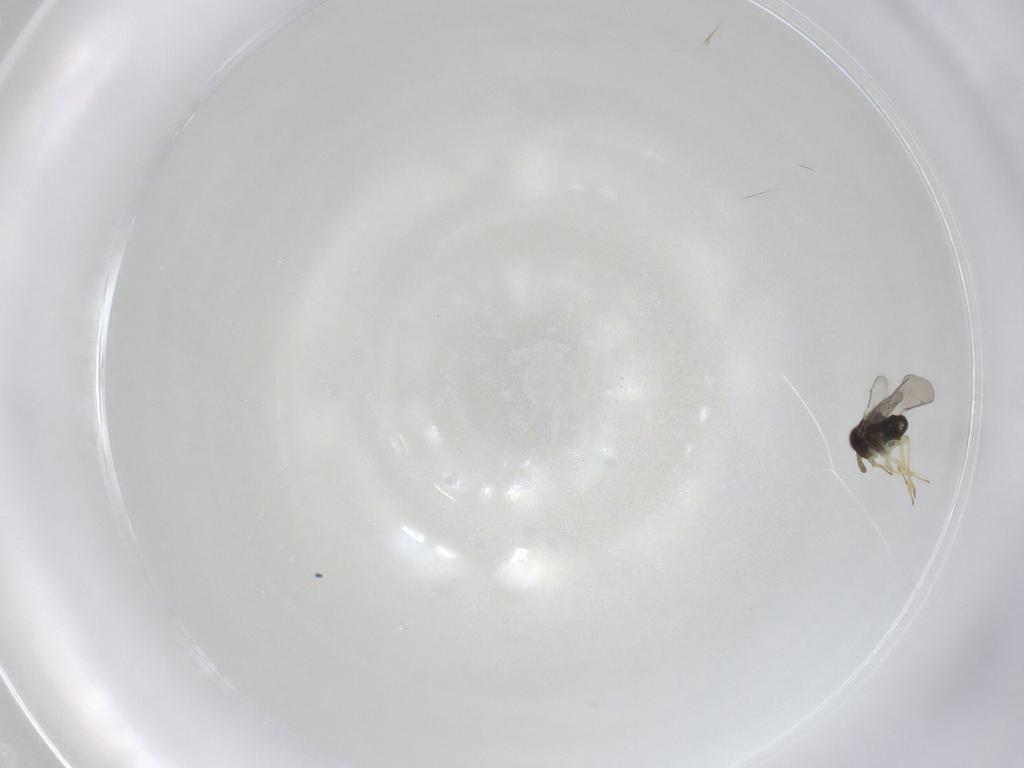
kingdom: Animalia
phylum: Arthropoda
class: Insecta
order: Hymenoptera
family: Aphelinidae
